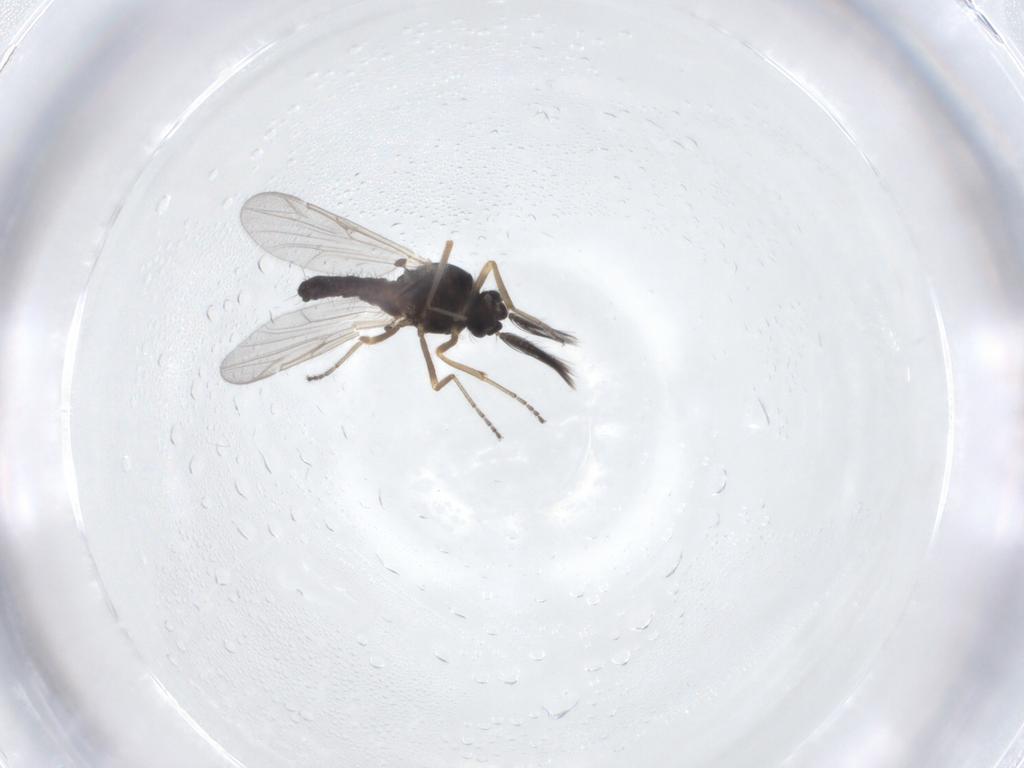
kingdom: Animalia
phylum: Arthropoda
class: Insecta
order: Diptera
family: Ceratopogonidae
